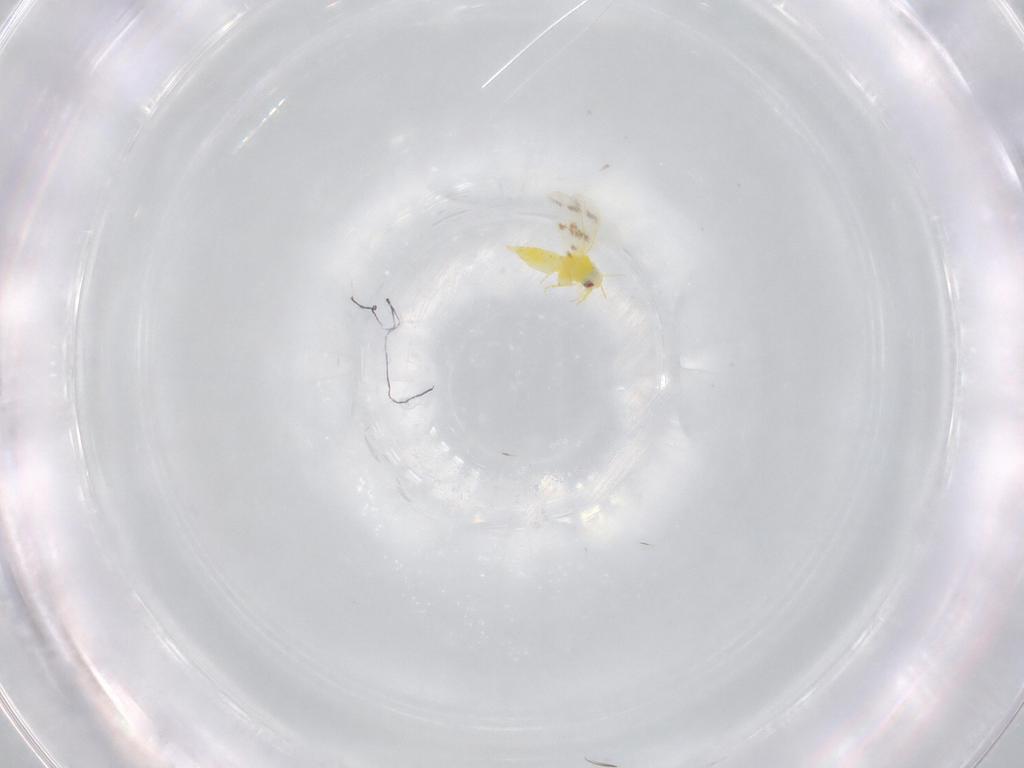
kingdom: Animalia
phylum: Arthropoda
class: Insecta
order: Hemiptera
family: Aleyrodidae
